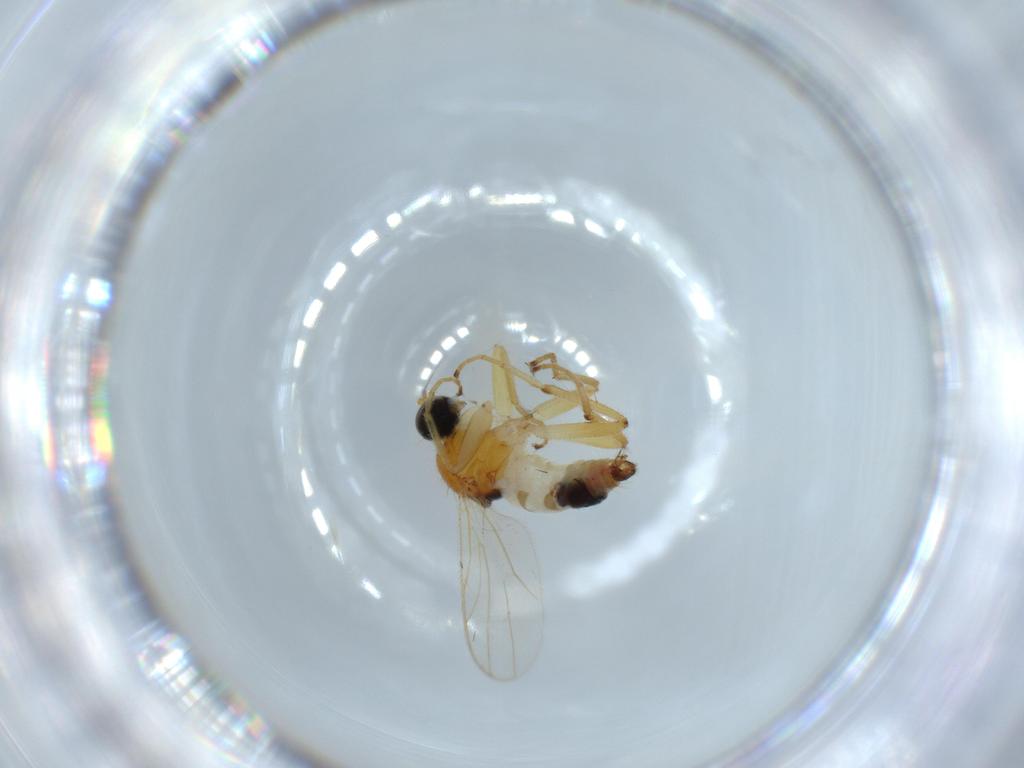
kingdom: Animalia
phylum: Arthropoda
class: Insecta
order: Diptera
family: Hybotidae
